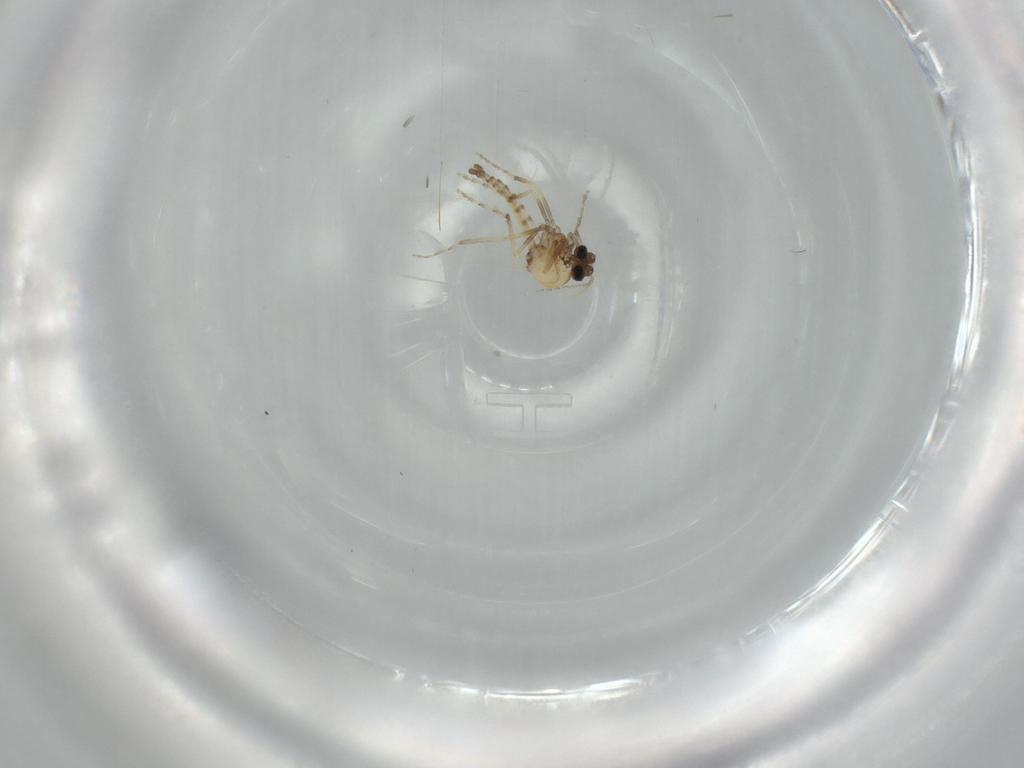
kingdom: Animalia
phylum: Arthropoda
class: Insecta
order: Diptera
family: Ceratopogonidae
